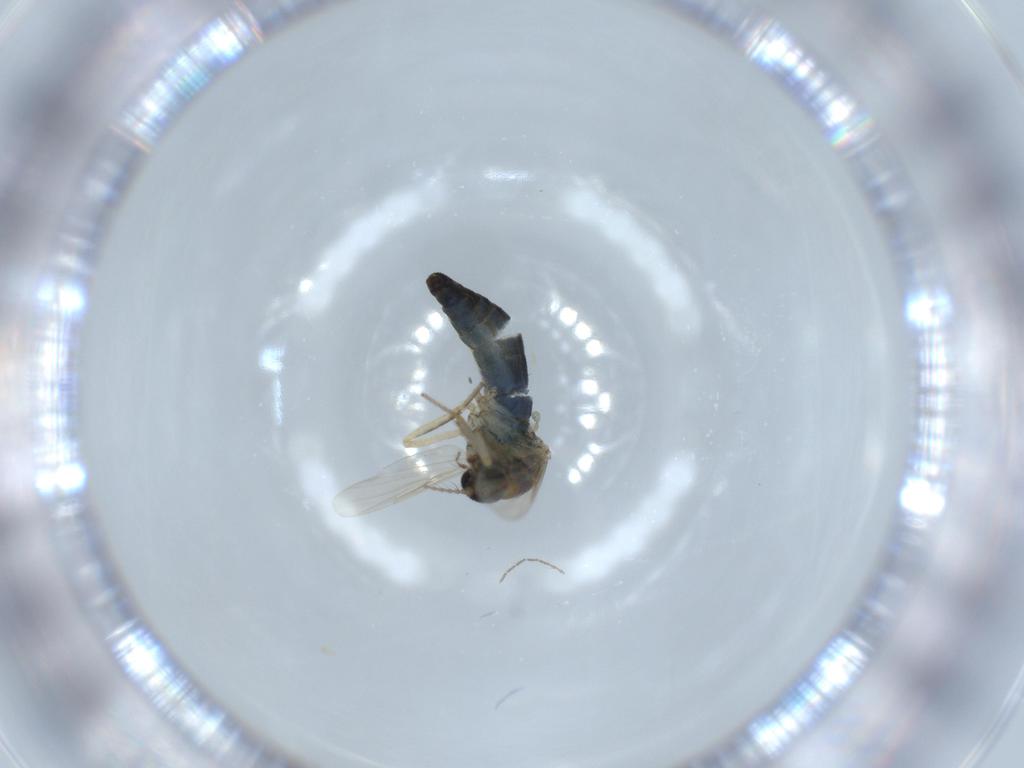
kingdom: Animalia
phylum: Arthropoda
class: Insecta
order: Diptera
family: Ceratopogonidae
